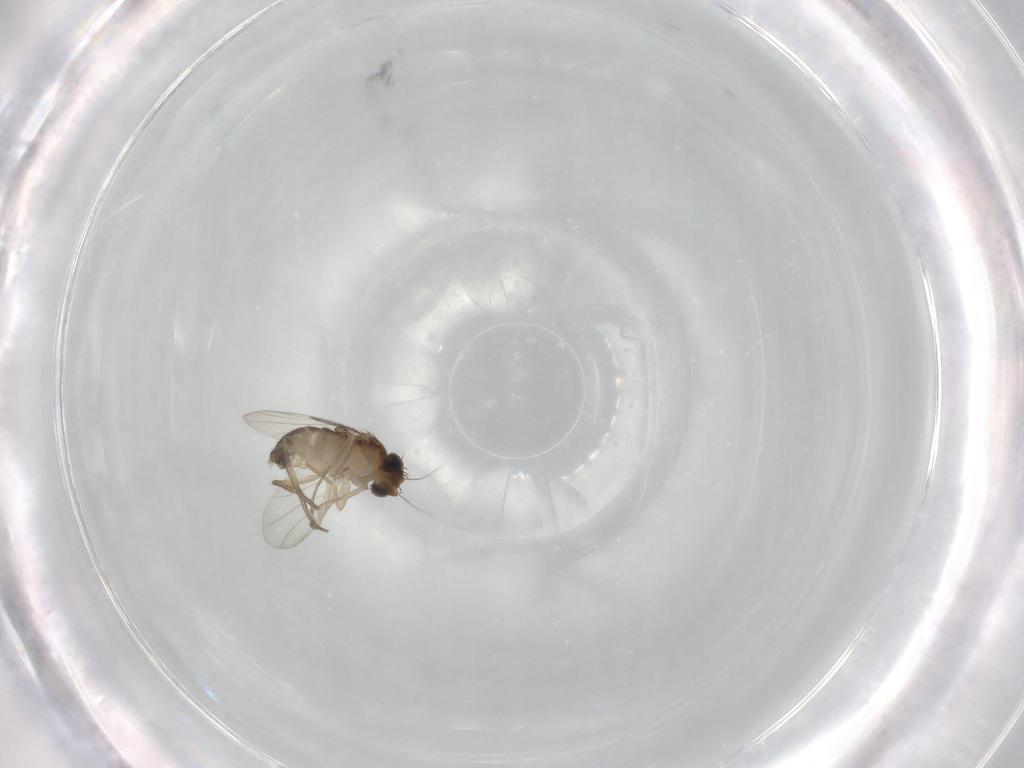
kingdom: Animalia
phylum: Arthropoda
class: Insecta
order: Diptera
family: Phoridae
